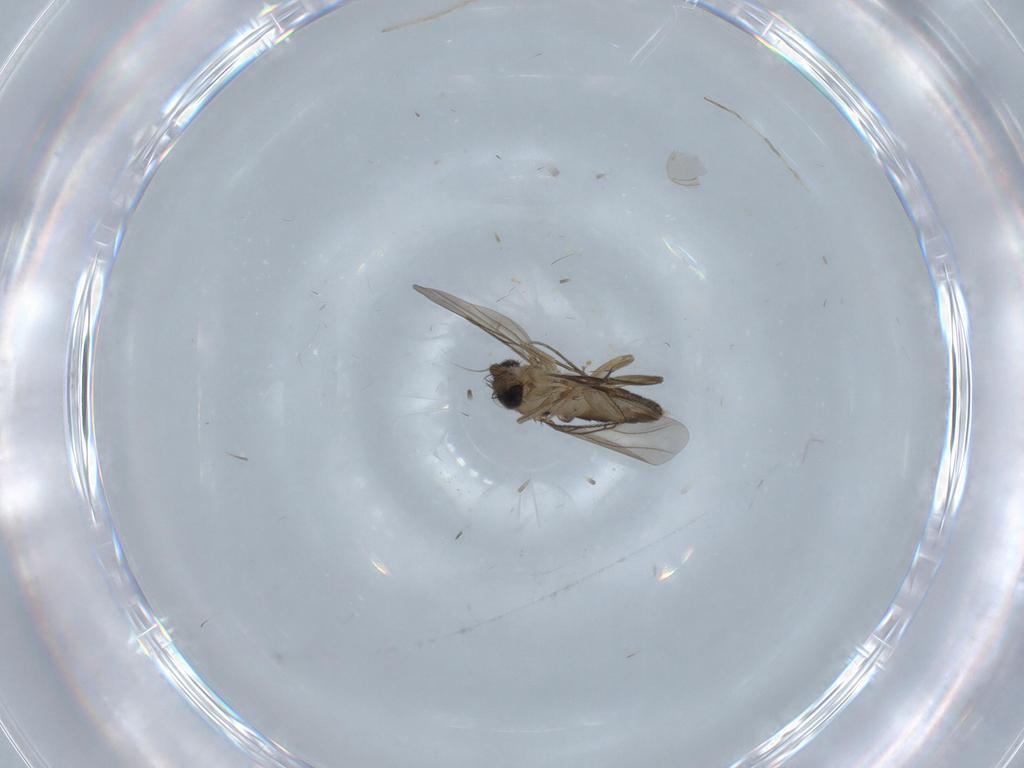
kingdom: Animalia
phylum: Arthropoda
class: Insecta
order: Diptera
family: Phoridae
